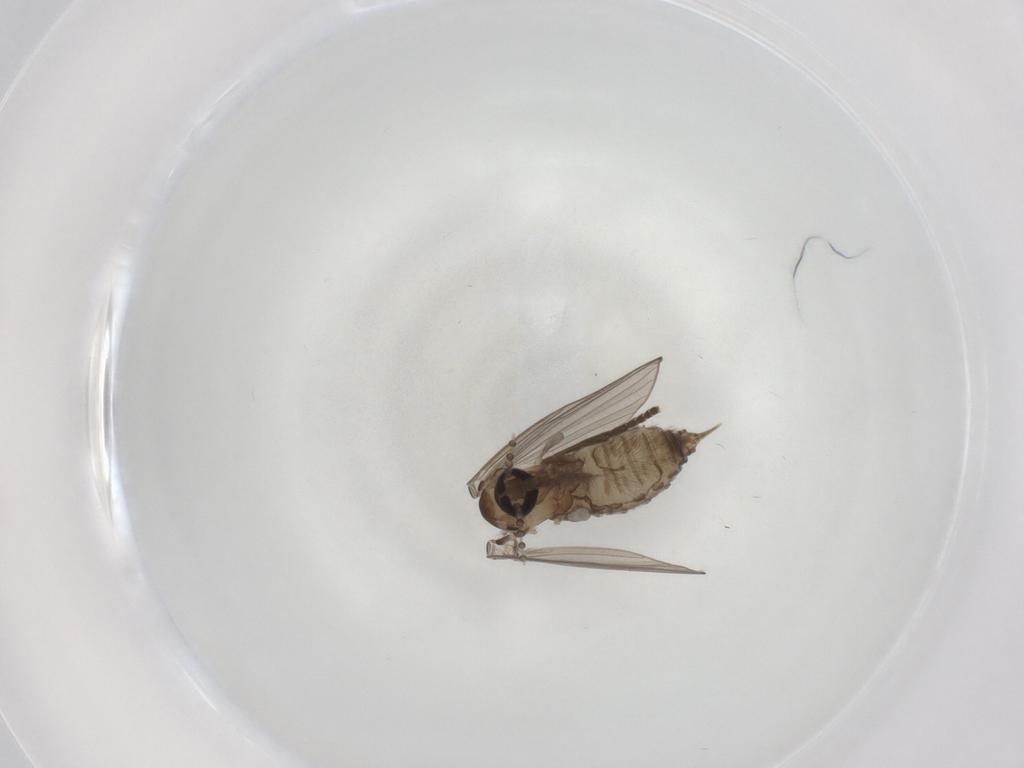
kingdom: Animalia
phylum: Arthropoda
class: Insecta
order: Diptera
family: Psychodidae
